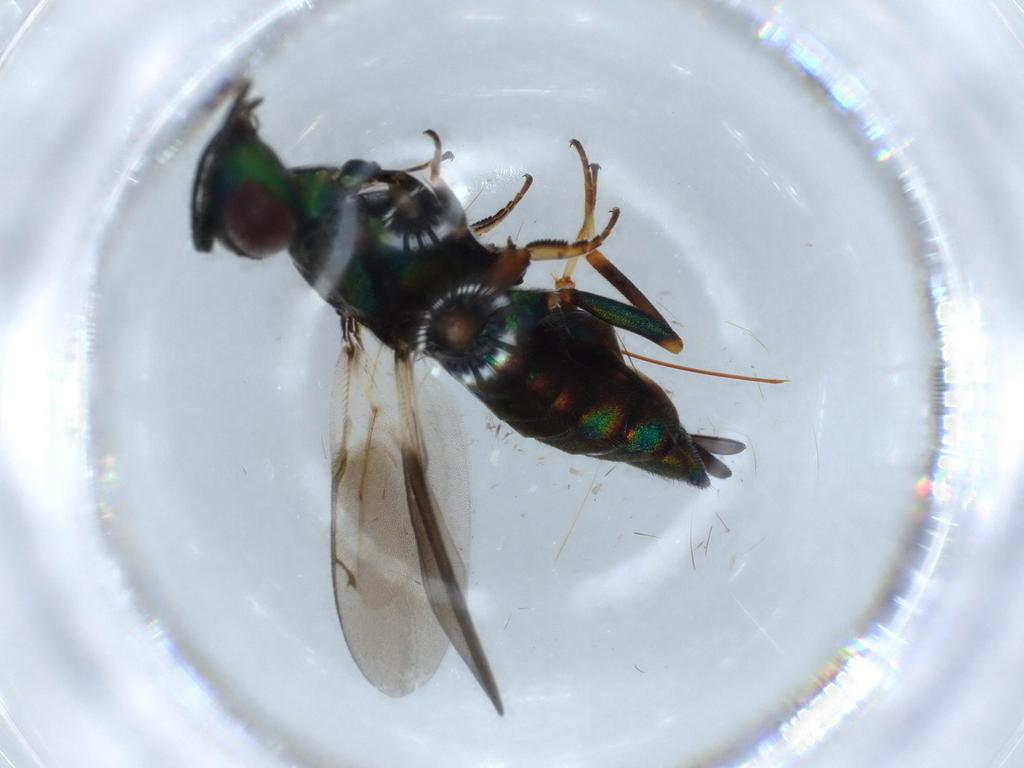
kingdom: Animalia
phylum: Arthropoda
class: Insecta
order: Hymenoptera
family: Eupelmidae
